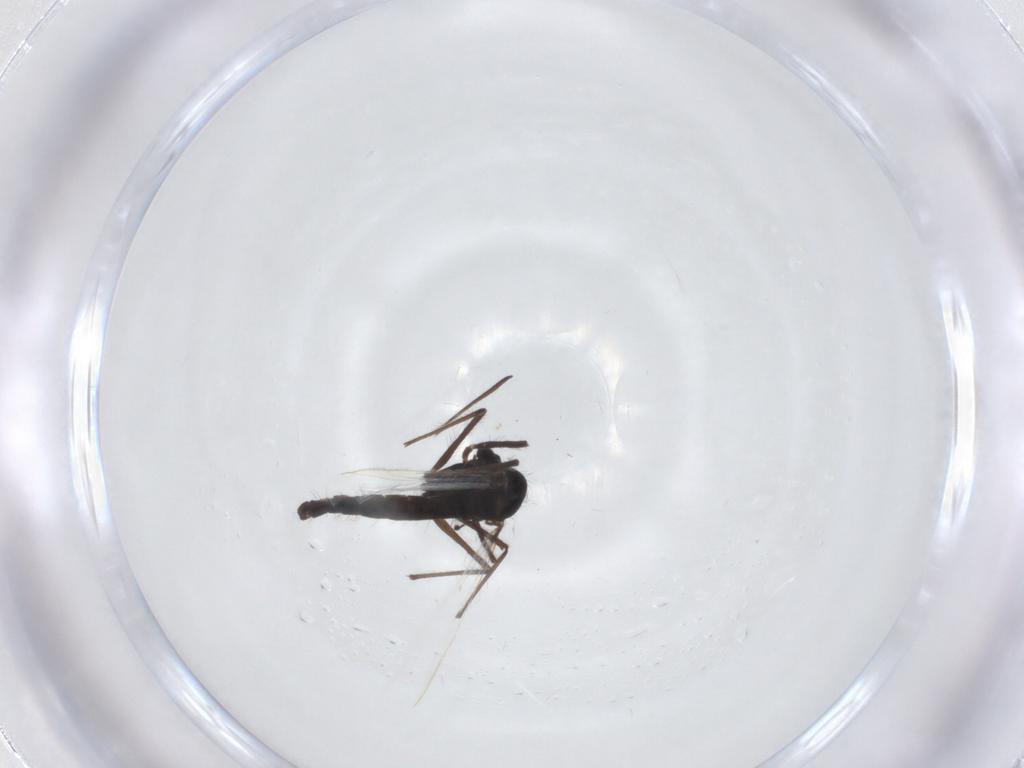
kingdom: Animalia
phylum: Arthropoda
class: Insecta
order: Diptera
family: Chironomidae
